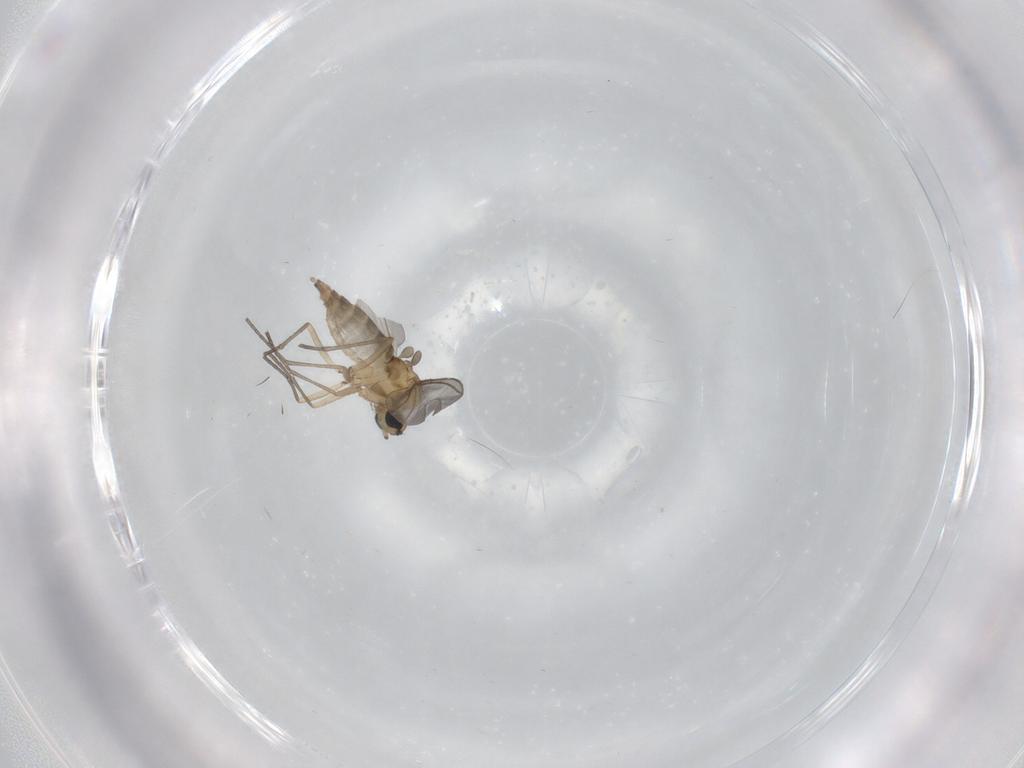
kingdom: Animalia
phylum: Arthropoda
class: Insecta
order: Diptera
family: Sciaridae
